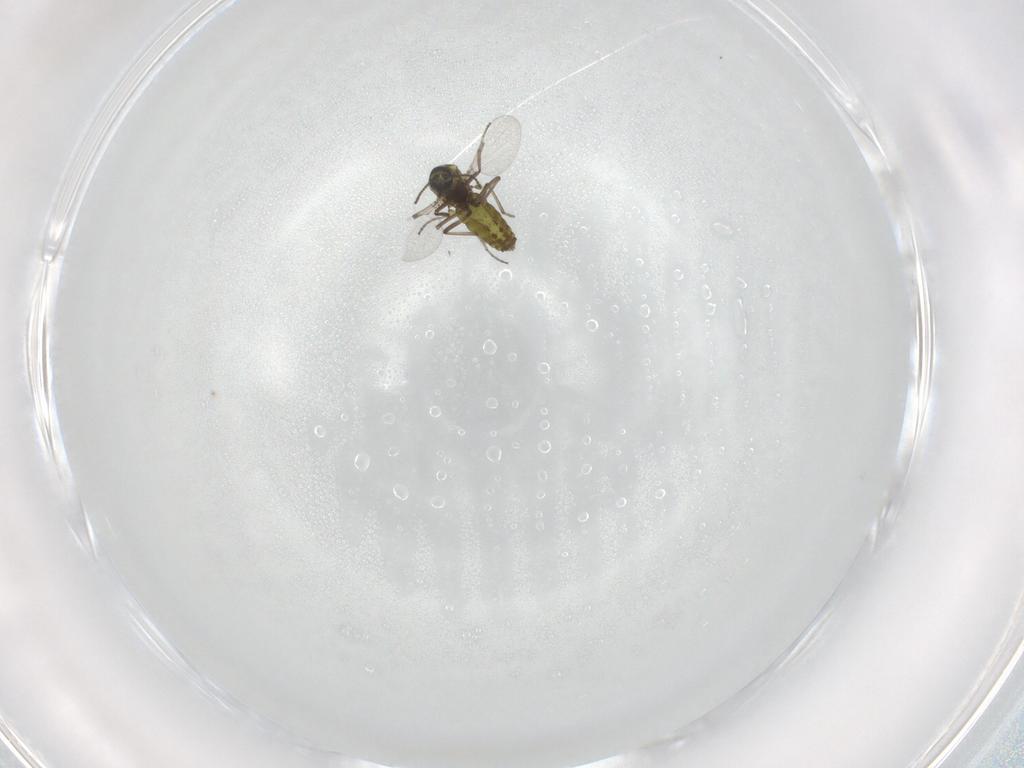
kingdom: Animalia
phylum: Arthropoda
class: Insecta
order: Diptera
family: Ceratopogonidae
